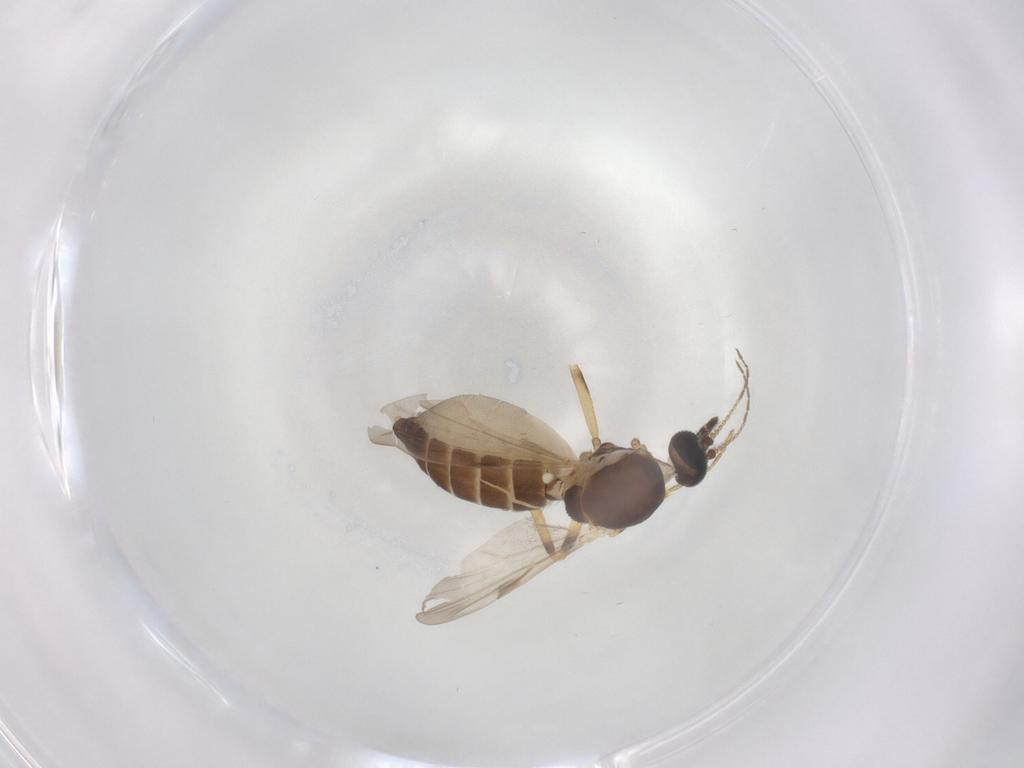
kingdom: Animalia
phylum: Arthropoda
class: Insecta
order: Diptera
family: Ceratopogonidae
